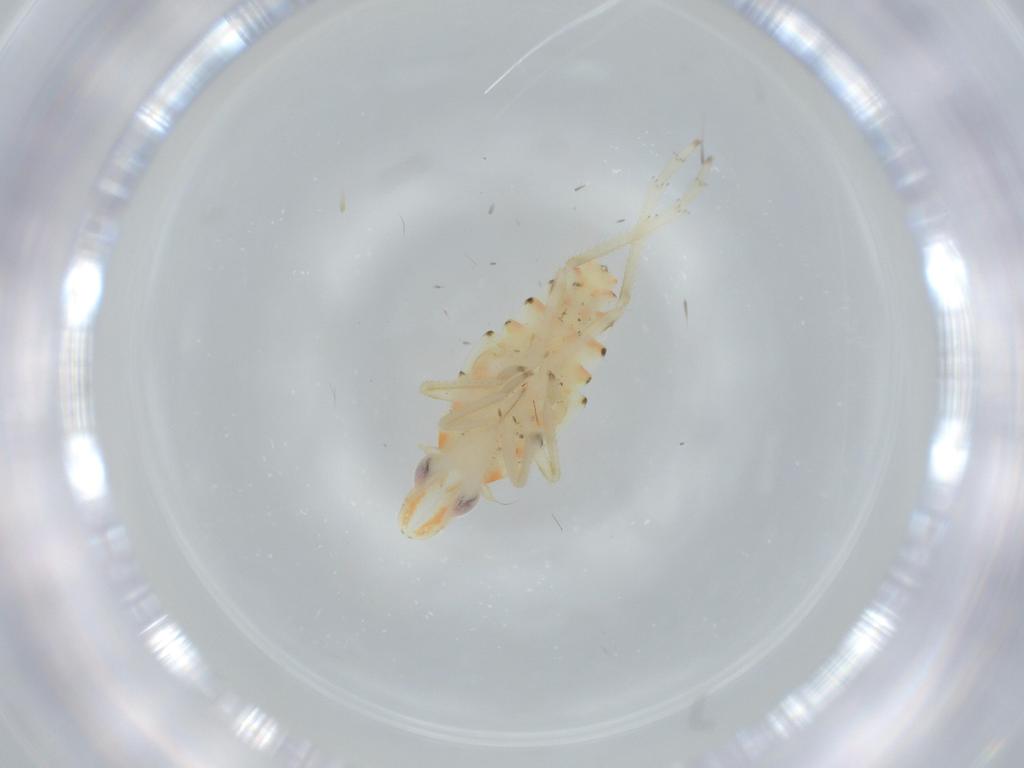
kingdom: Animalia
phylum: Arthropoda
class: Insecta
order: Hemiptera
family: Tropiduchidae
